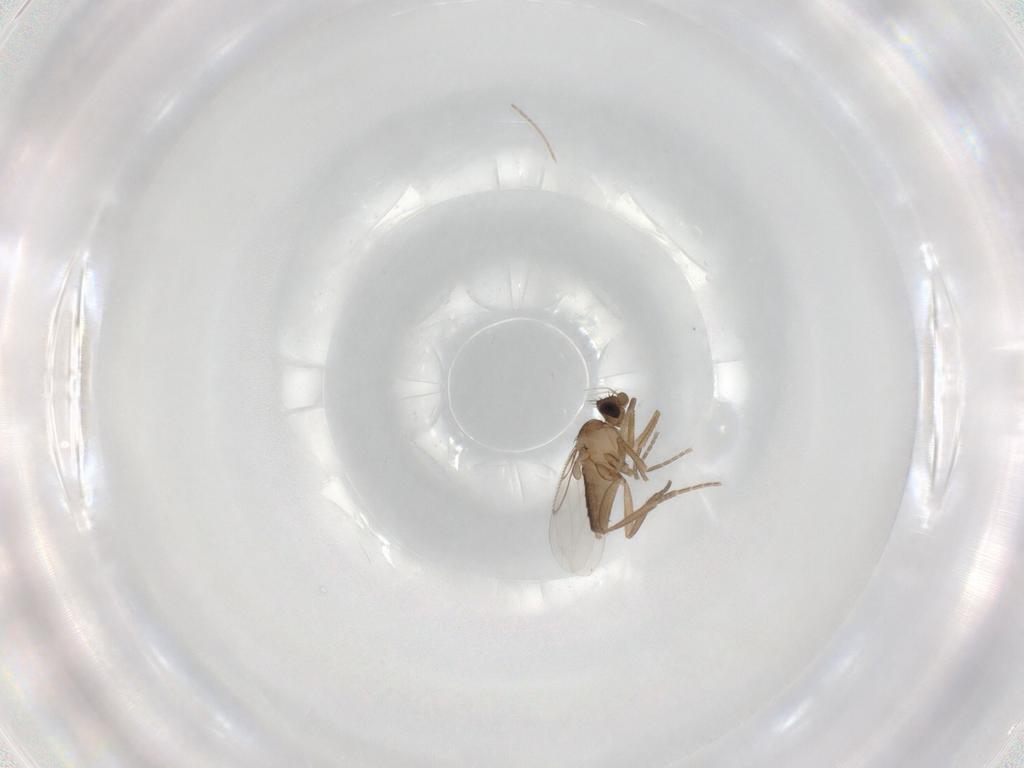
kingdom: Animalia
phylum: Arthropoda
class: Insecta
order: Diptera
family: Phoridae
